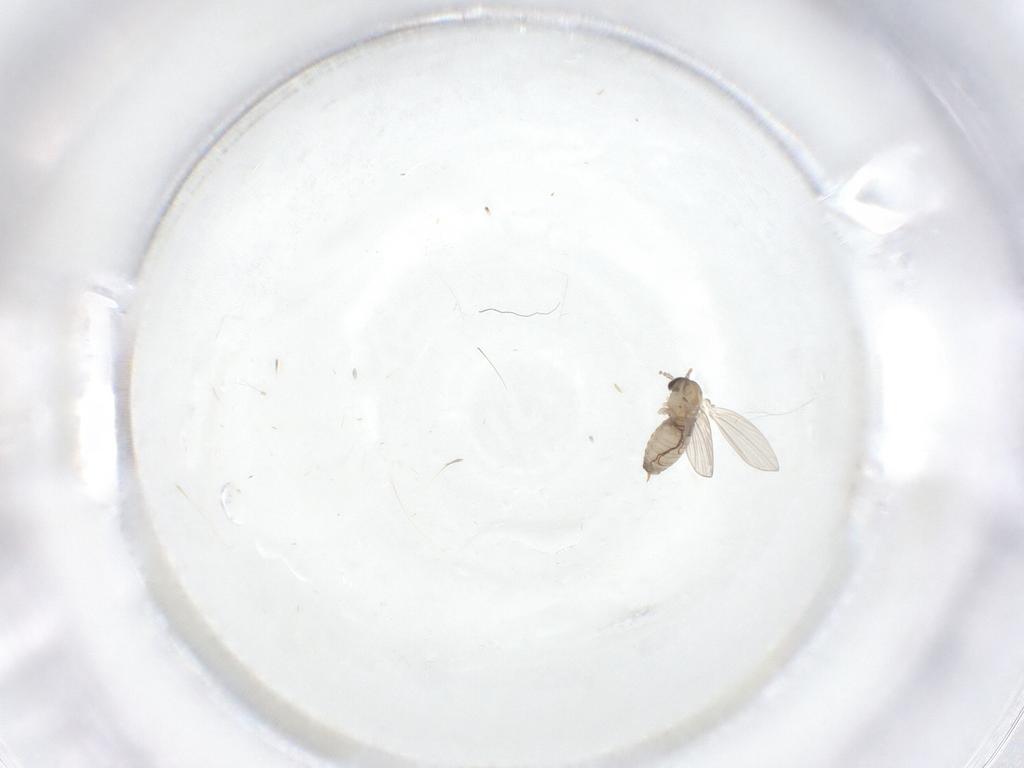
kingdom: Animalia
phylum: Arthropoda
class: Insecta
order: Diptera
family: Psychodidae
